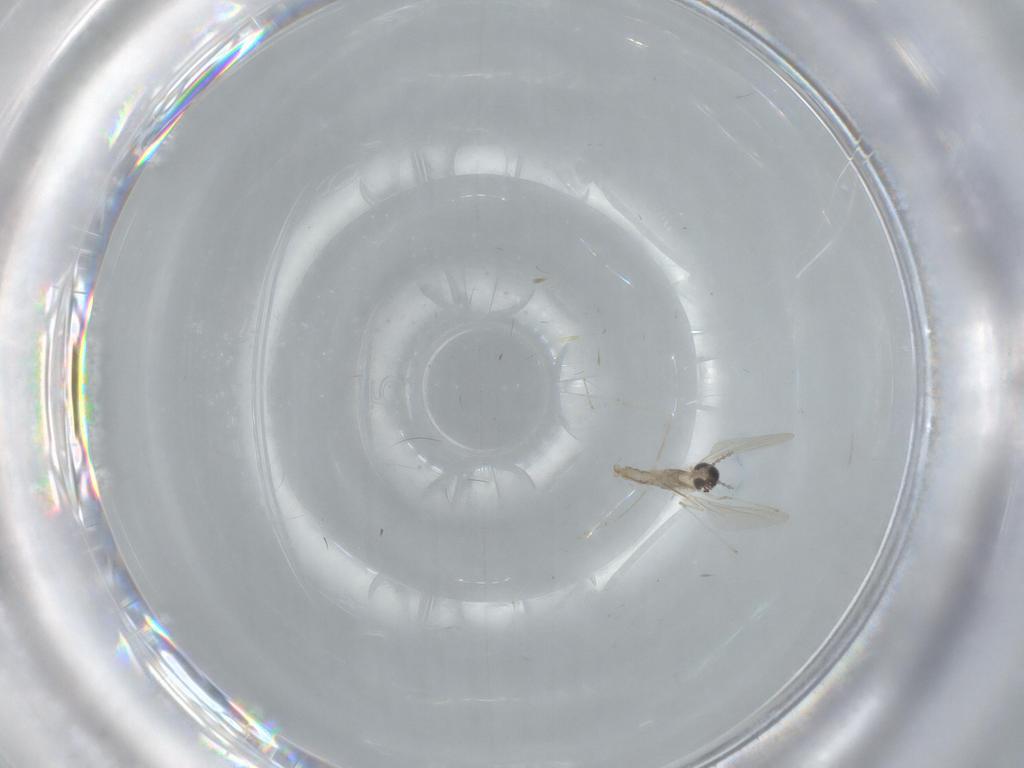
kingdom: Animalia
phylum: Arthropoda
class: Insecta
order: Diptera
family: Cecidomyiidae
